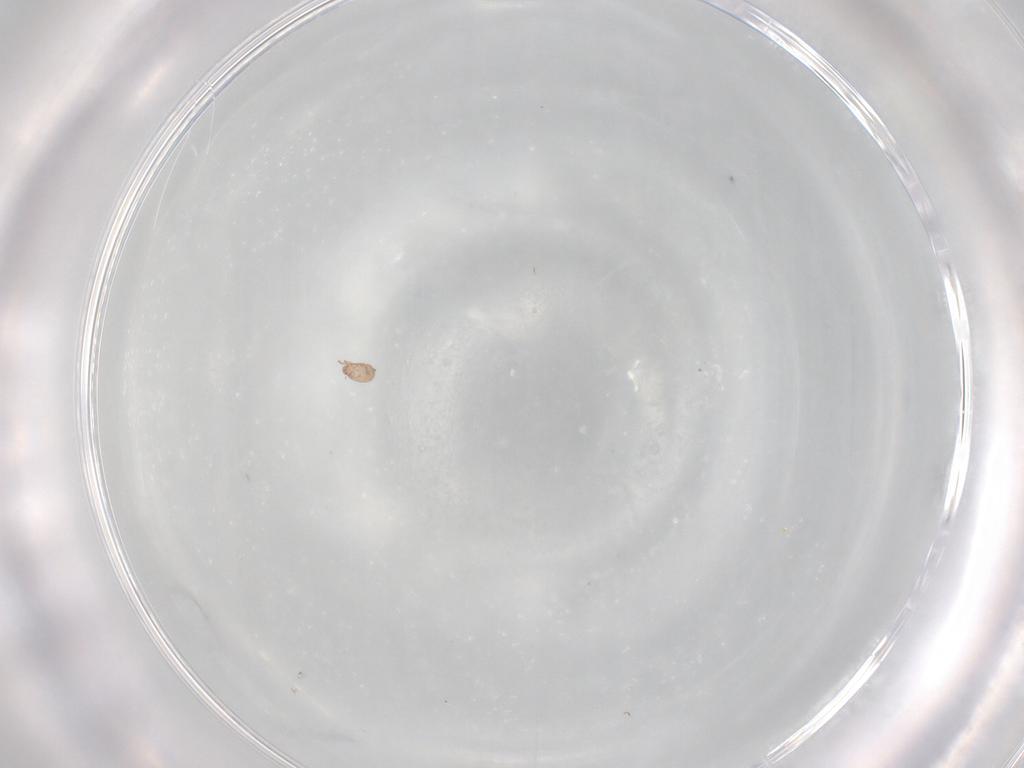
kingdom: Animalia
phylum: Arthropoda
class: Arachnida
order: Sarcoptiformes
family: Eremaeidae
